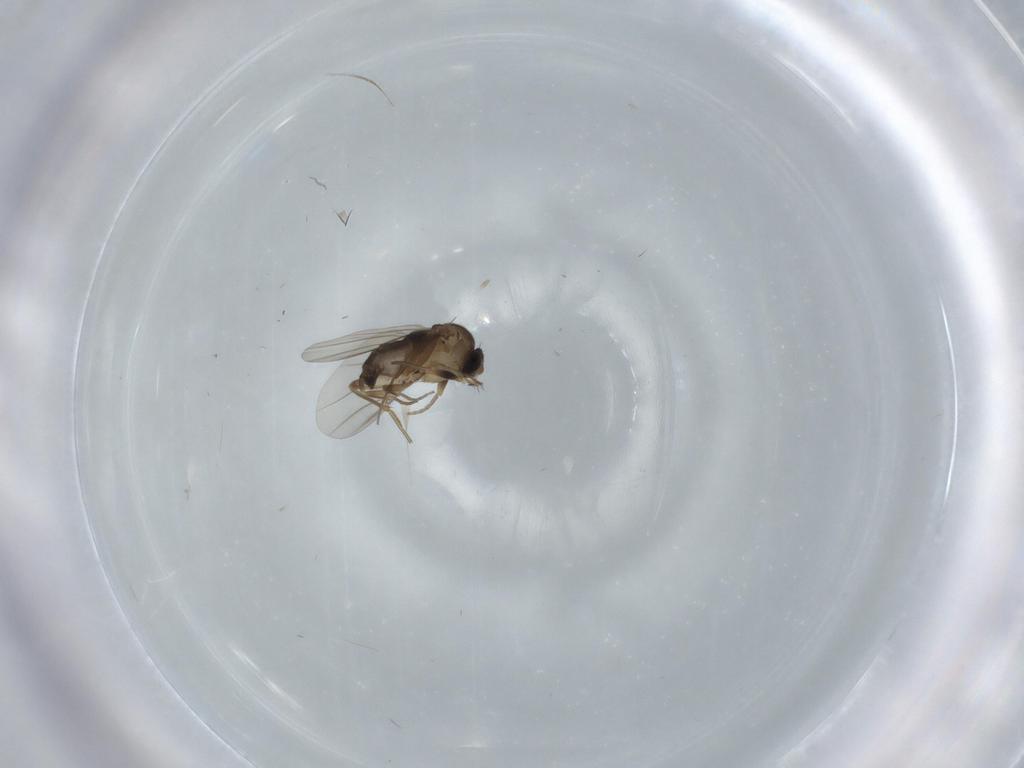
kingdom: Animalia
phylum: Arthropoda
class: Insecta
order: Diptera
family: Phoridae
